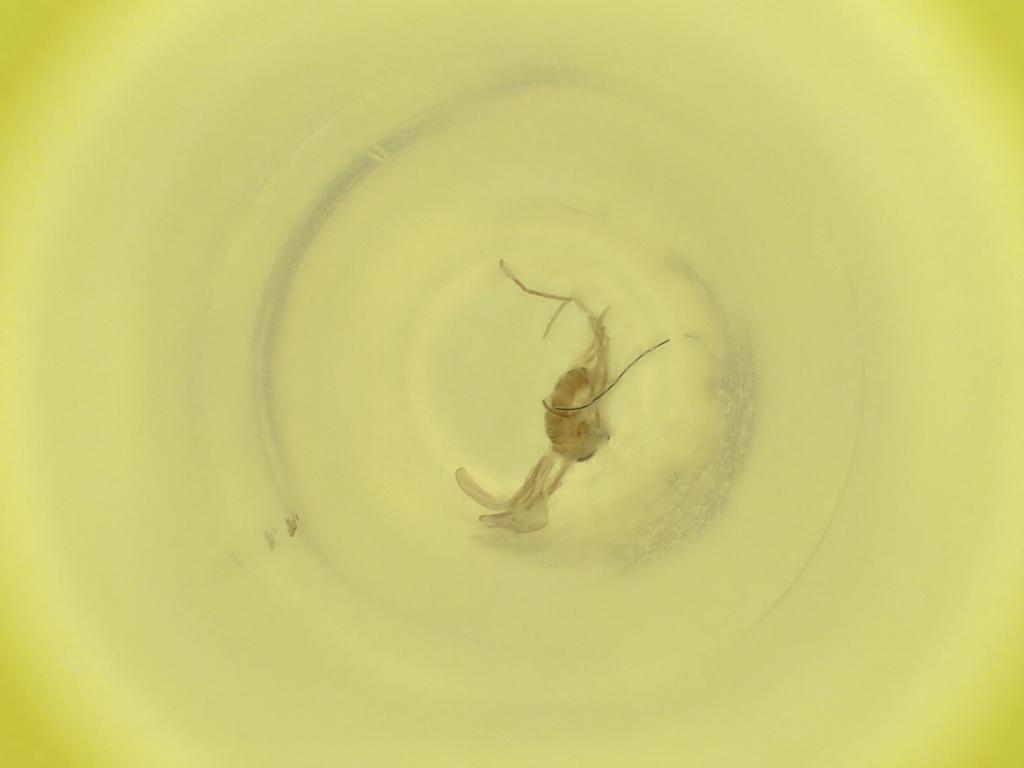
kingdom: Animalia
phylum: Arthropoda
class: Insecta
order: Diptera
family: Cecidomyiidae
